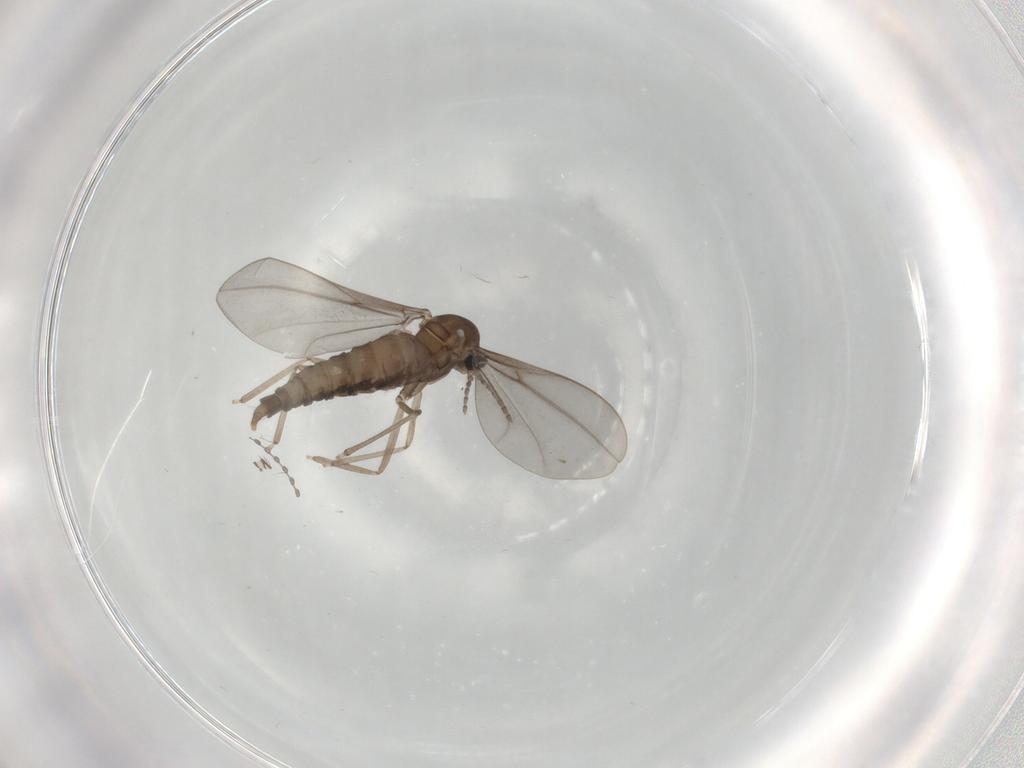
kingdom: Animalia
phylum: Arthropoda
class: Insecta
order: Diptera
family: Cecidomyiidae
